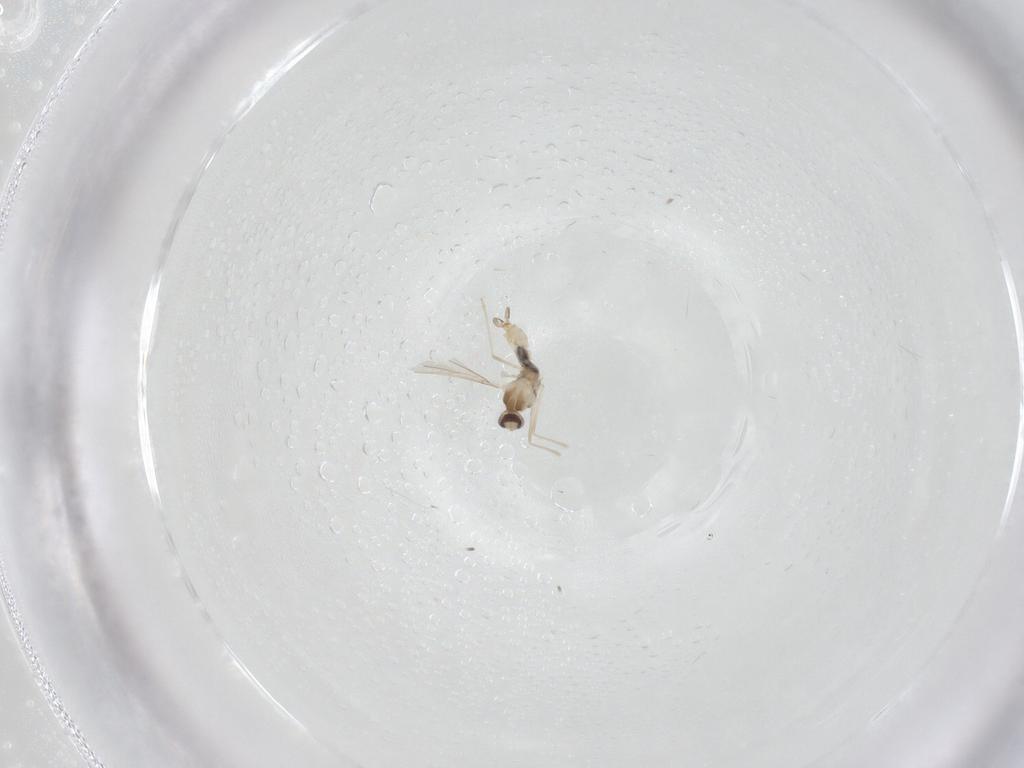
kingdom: Animalia
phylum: Arthropoda
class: Insecta
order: Diptera
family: Cecidomyiidae
